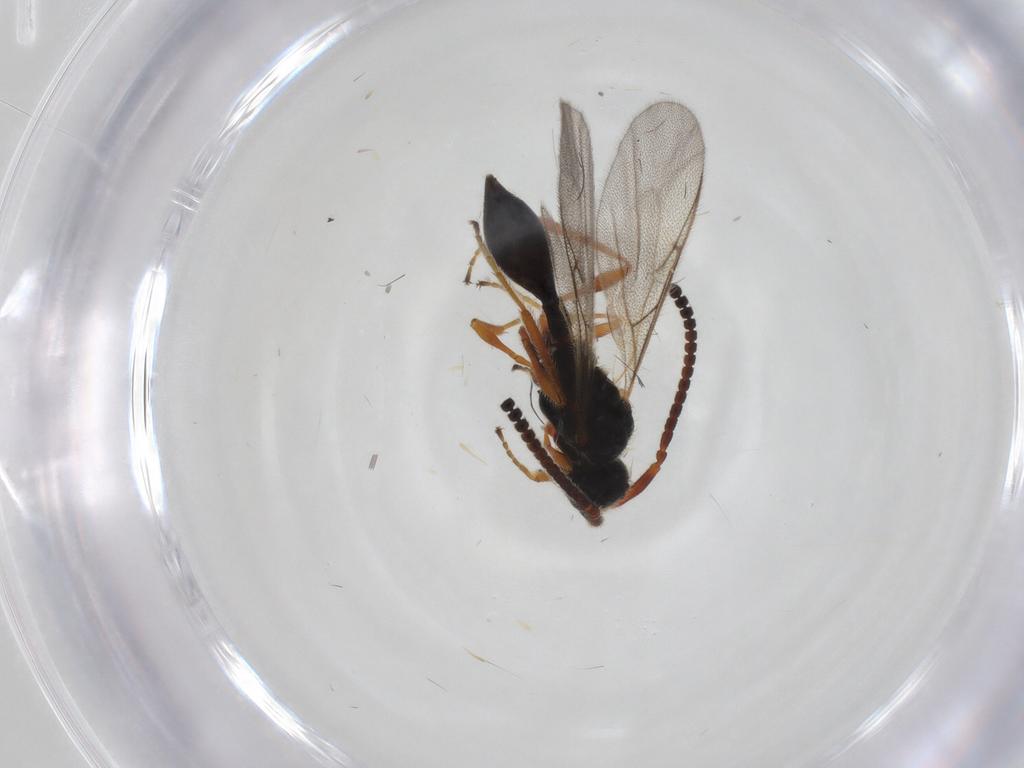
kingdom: Animalia
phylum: Arthropoda
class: Insecta
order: Hymenoptera
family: Diapriidae
